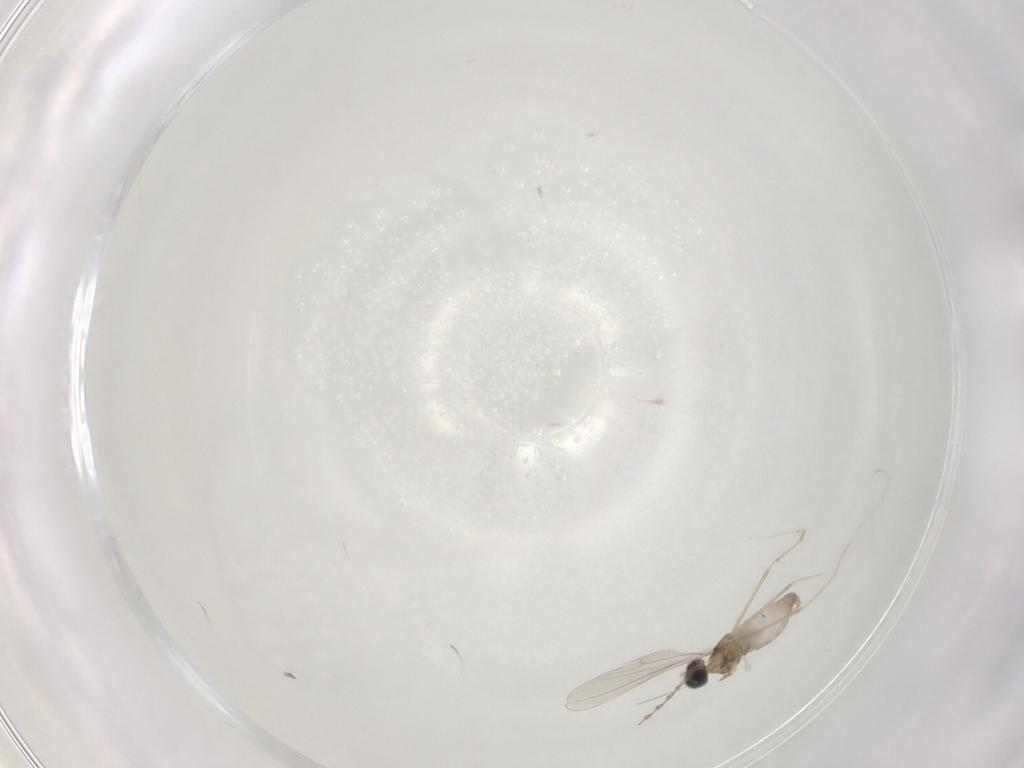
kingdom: Animalia
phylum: Arthropoda
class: Insecta
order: Diptera
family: Cecidomyiidae
